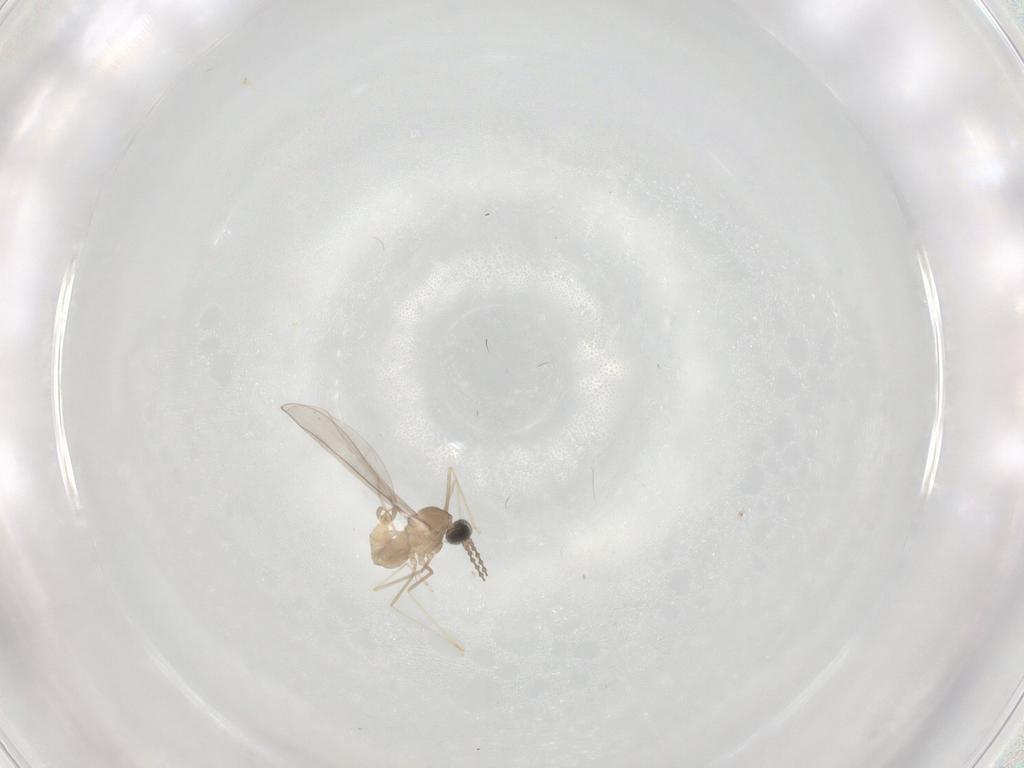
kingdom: Animalia
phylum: Arthropoda
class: Insecta
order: Diptera
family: Cecidomyiidae
